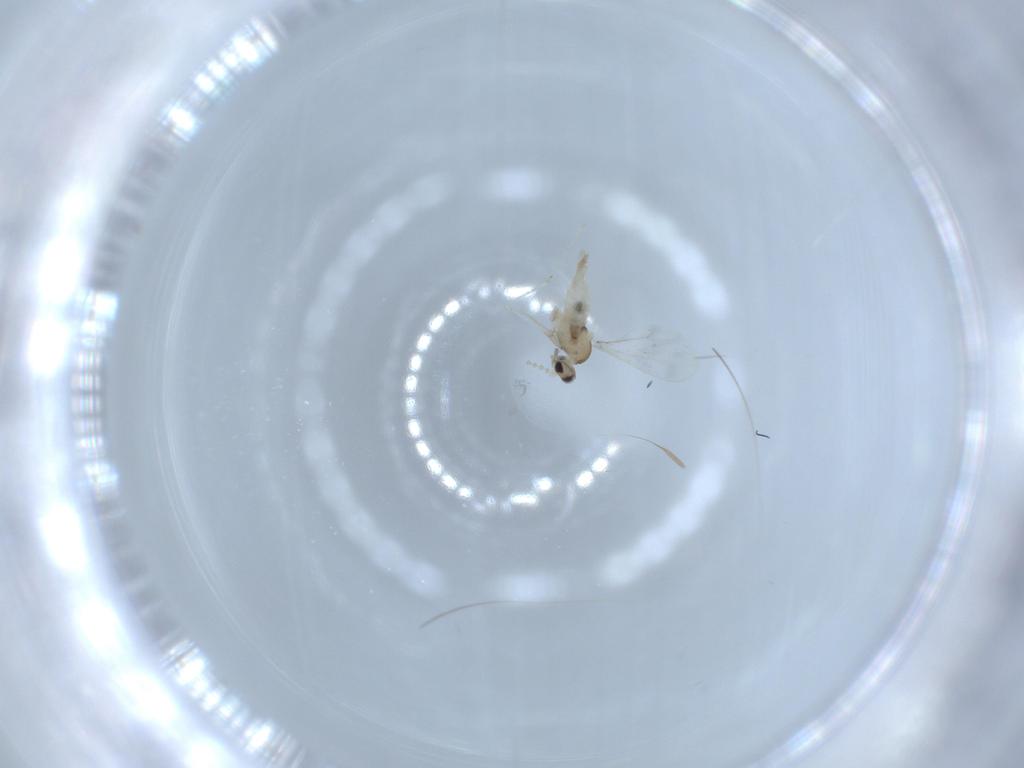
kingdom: Animalia
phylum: Arthropoda
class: Insecta
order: Diptera
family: Cecidomyiidae
